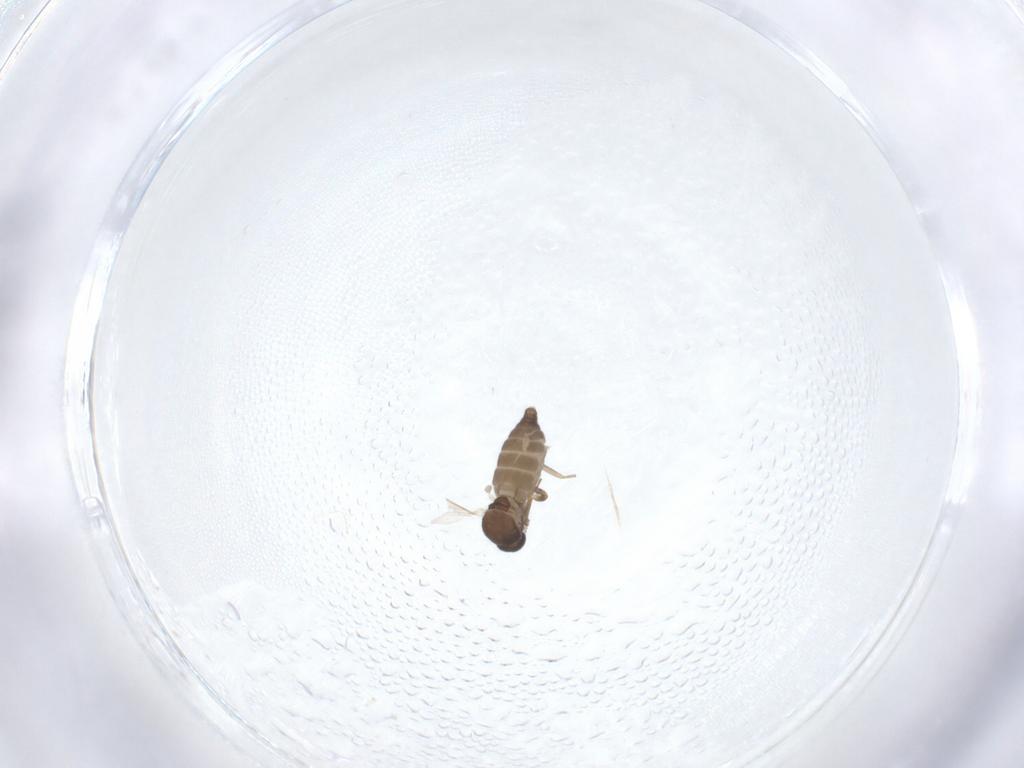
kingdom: Animalia
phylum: Arthropoda
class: Insecta
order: Diptera
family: Ceratopogonidae
